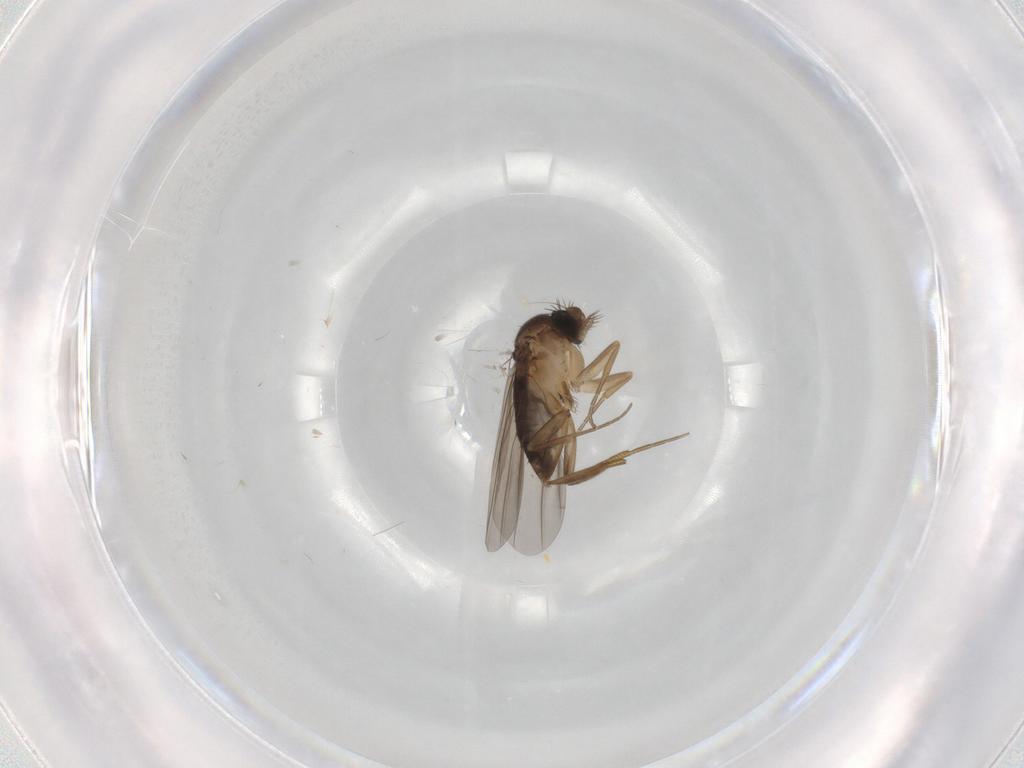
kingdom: Animalia
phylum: Arthropoda
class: Insecta
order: Diptera
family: Phoridae
